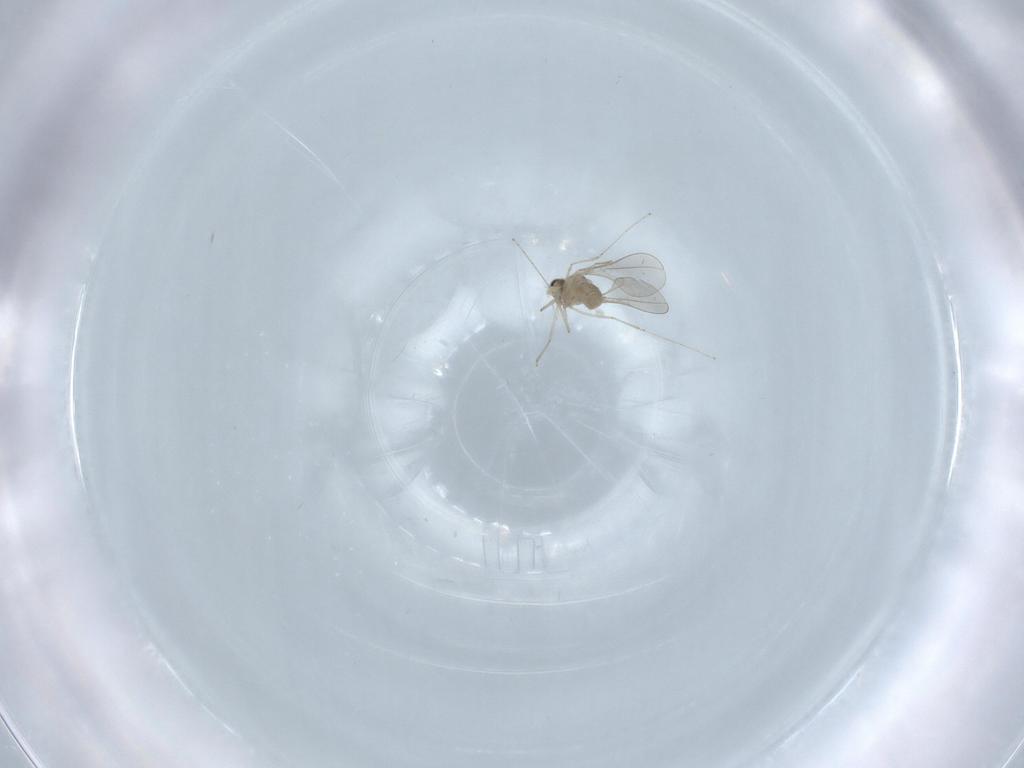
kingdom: Animalia
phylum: Arthropoda
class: Insecta
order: Diptera
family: Cecidomyiidae
